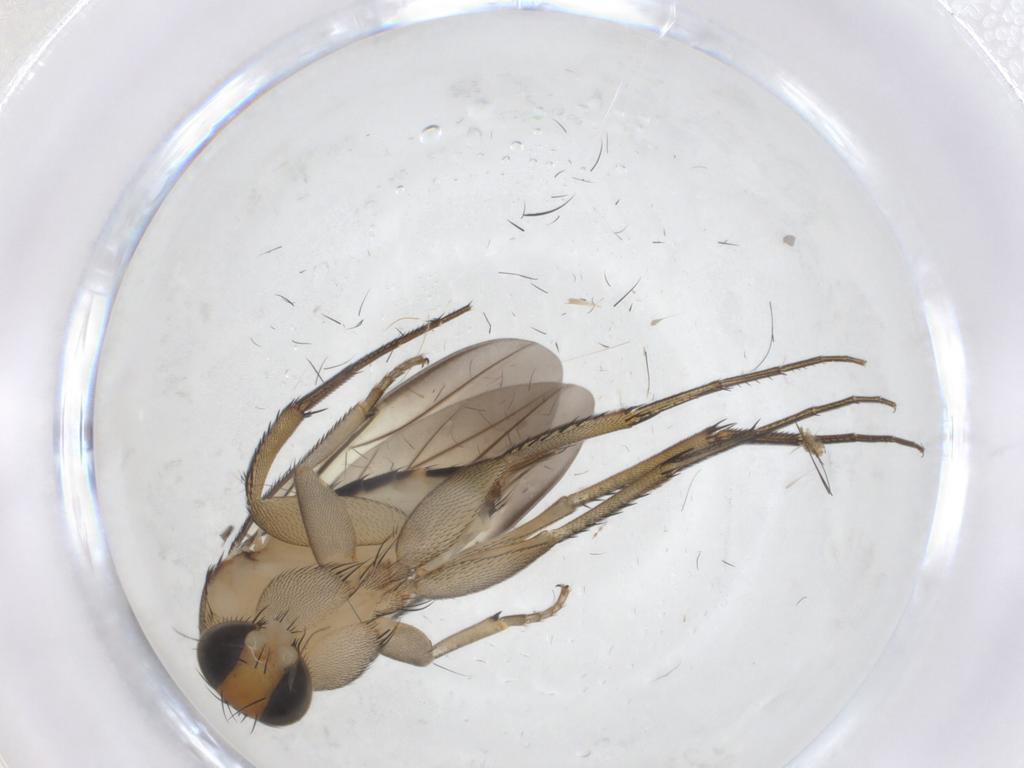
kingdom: Animalia
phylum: Arthropoda
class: Insecta
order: Diptera
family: Phoridae
